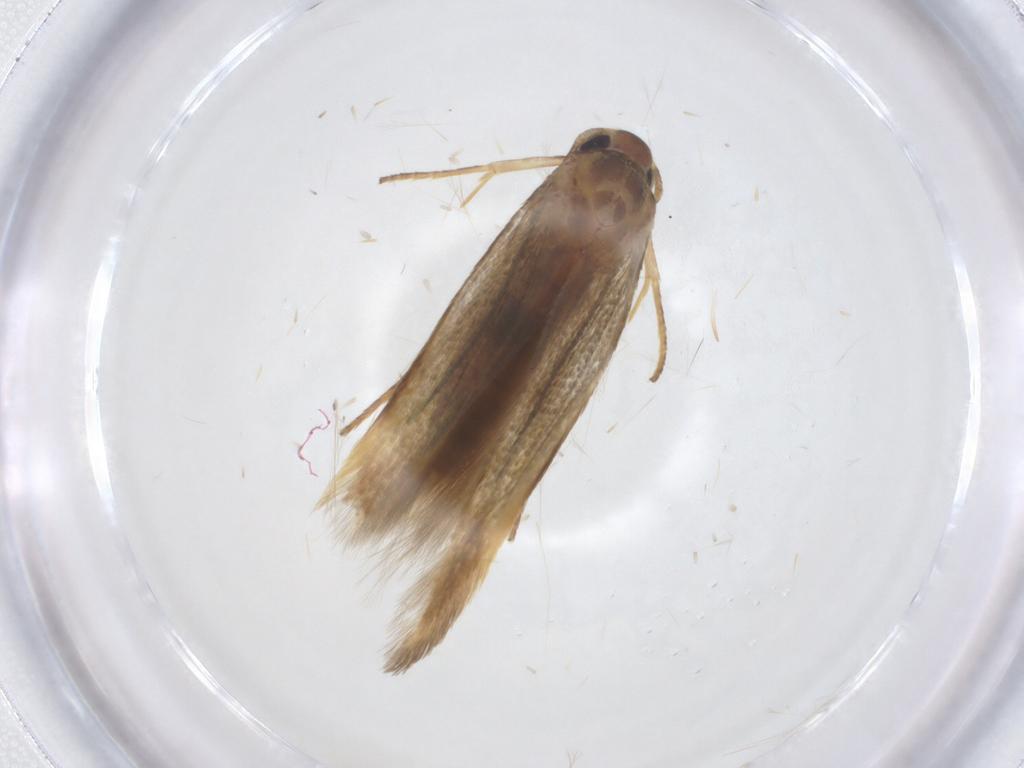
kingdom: Animalia
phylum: Arthropoda
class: Insecta
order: Lepidoptera
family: Stathmopodidae
